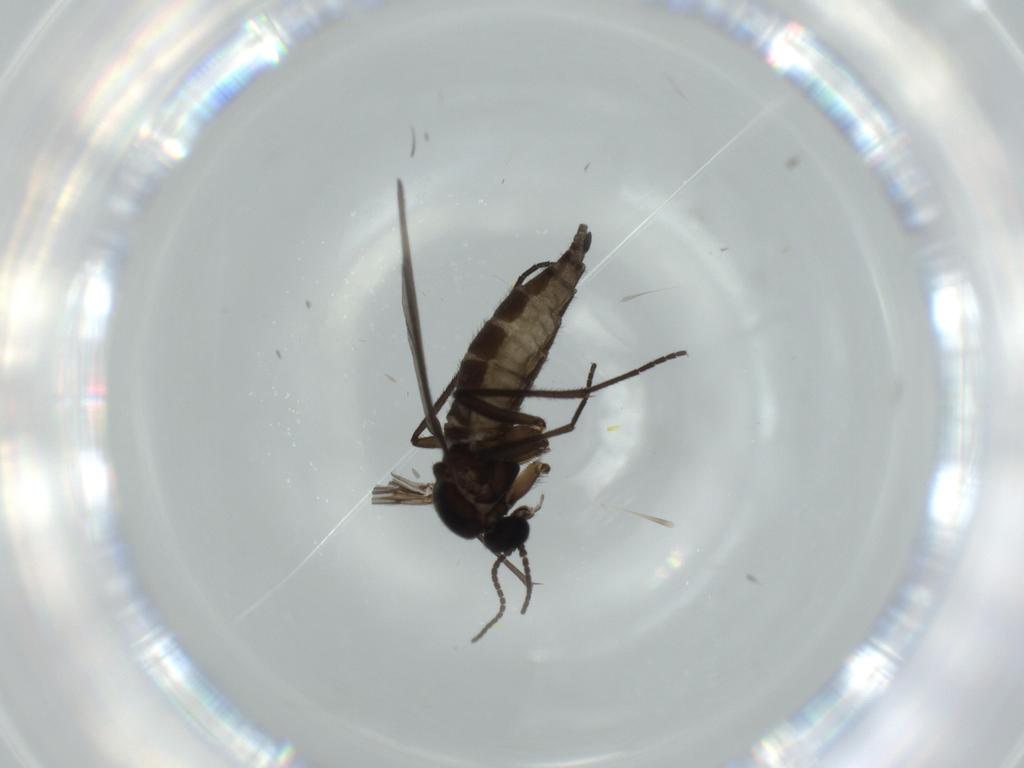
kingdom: Animalia
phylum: Arthropoda
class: Insecta
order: Diptera
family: Sciaridae
